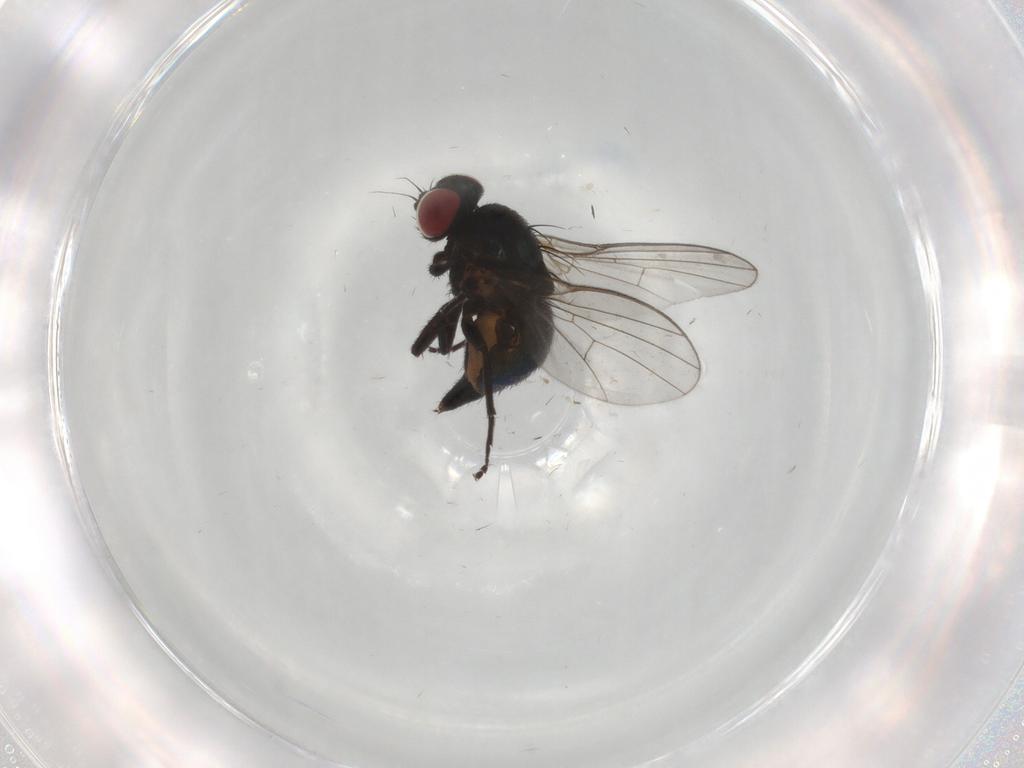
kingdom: Animalia
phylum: Arthropoda
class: Insecta
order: Diptera
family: Agromyzidae
